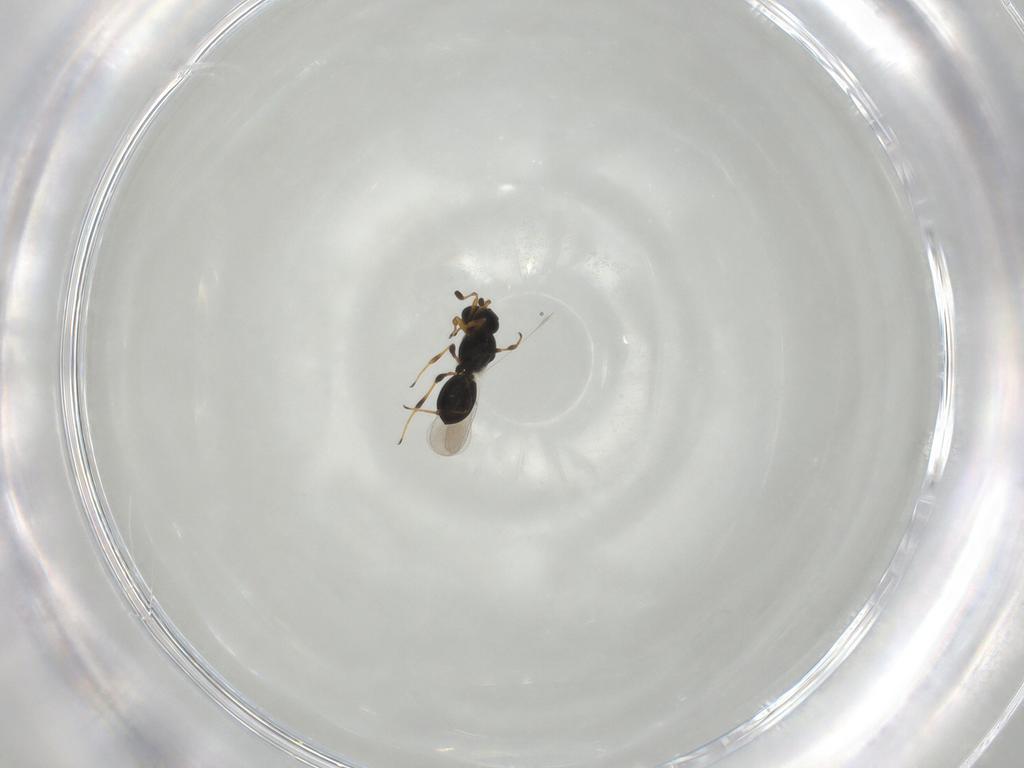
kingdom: Animalia
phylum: Arthropoda
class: Insecta
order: Hymenoptera
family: Platygastridae
